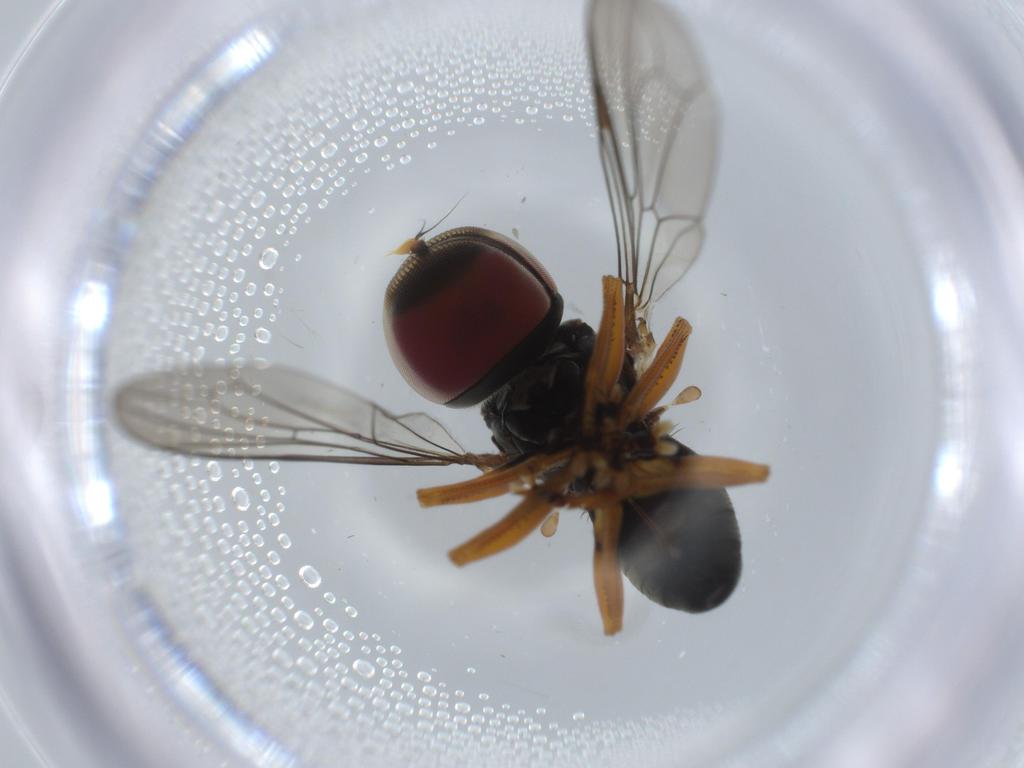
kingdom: Animalia
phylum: Arthropoda
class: Insecta
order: Diptera
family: Pipunculidae
